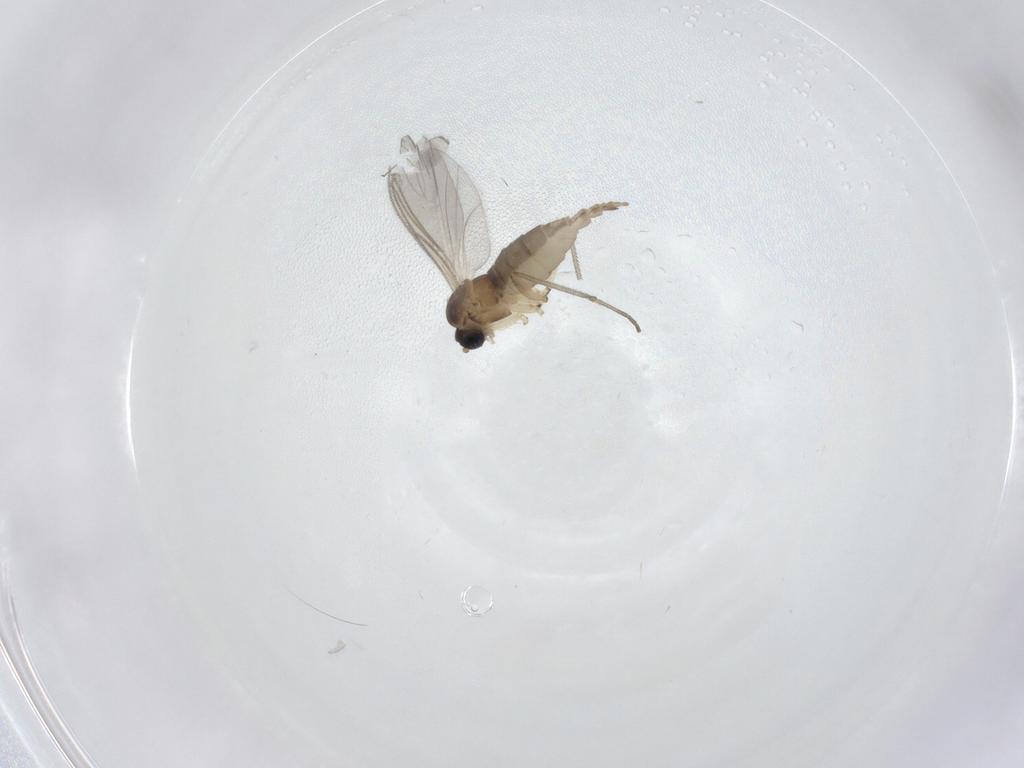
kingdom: Animalia
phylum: Arthropoda
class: Insecta
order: Diptera
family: Sciaridae
